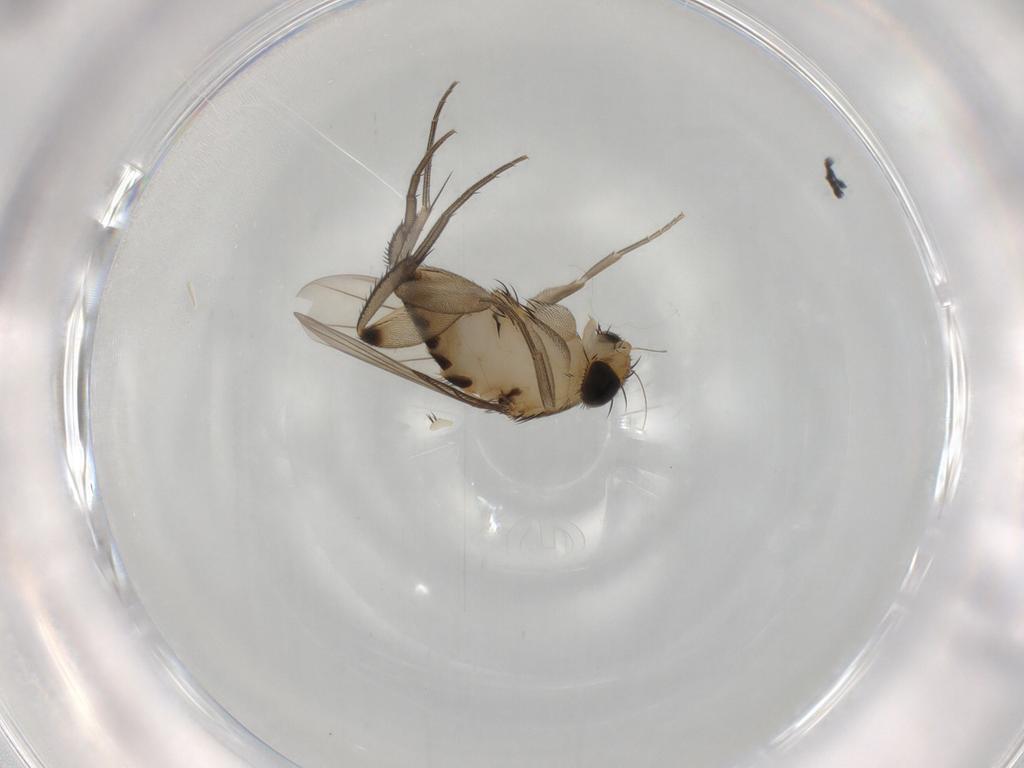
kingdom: Animalia
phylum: Arthropoda
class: Insecta
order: Diptera
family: Phoridae
